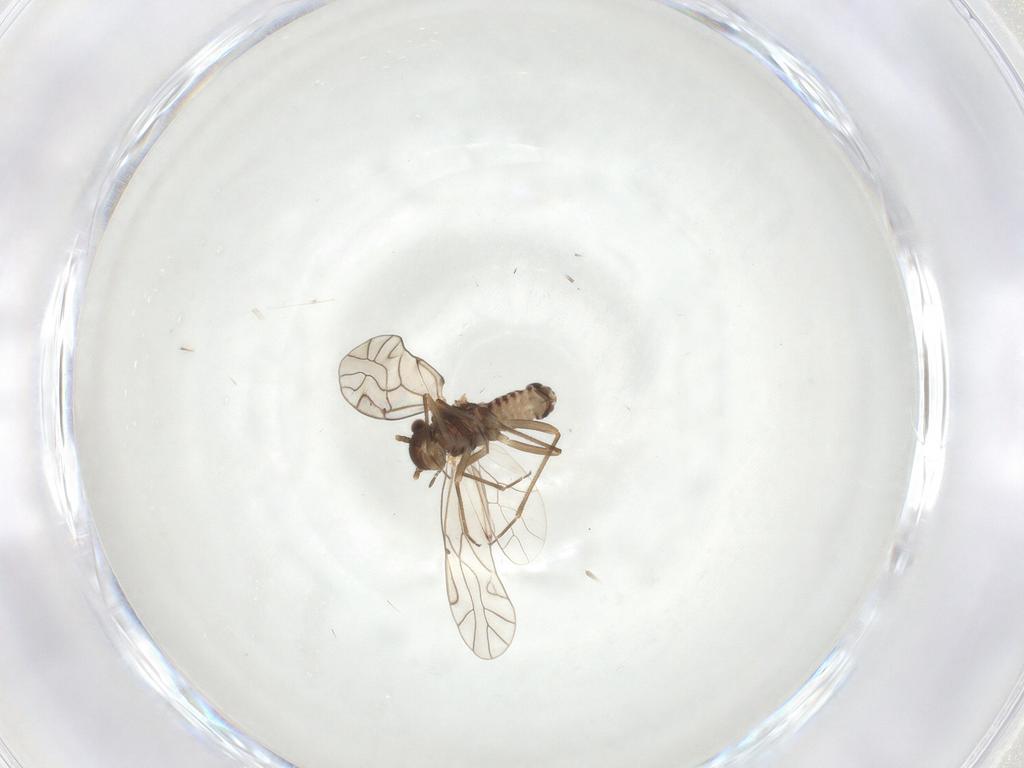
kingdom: Animalia
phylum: Arthropoda
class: Insecta
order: Psocodea
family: Lachesillidae
